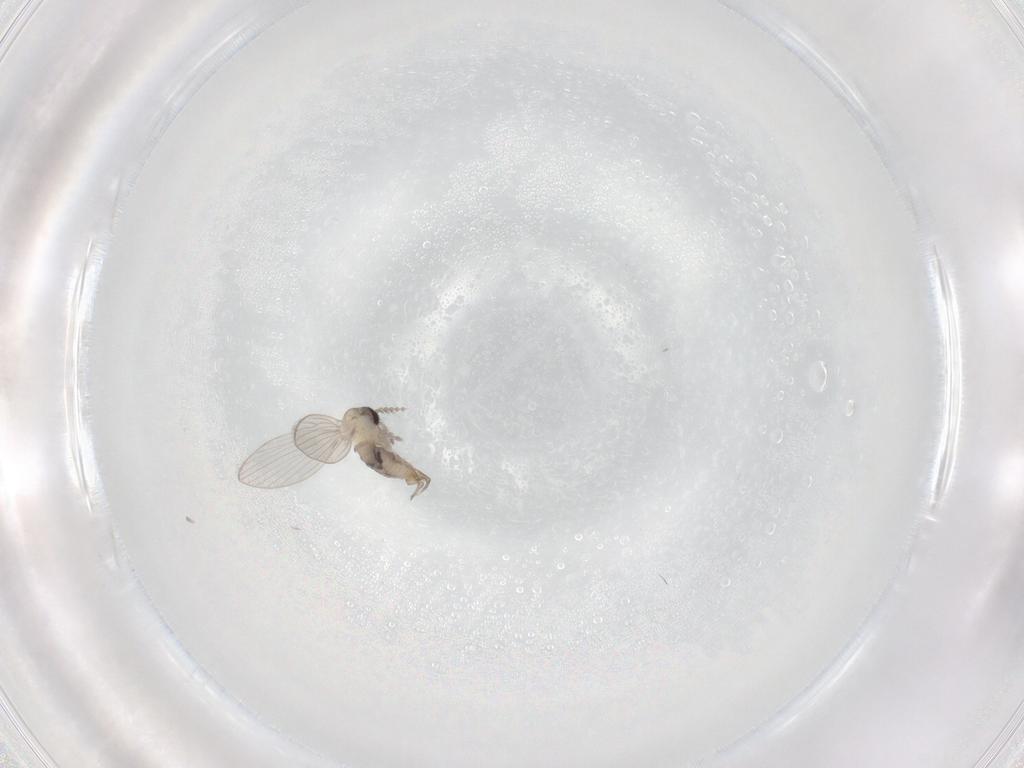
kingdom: Animalia
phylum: Arthropoda
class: Insecta
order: Diptera
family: Psychodidae
